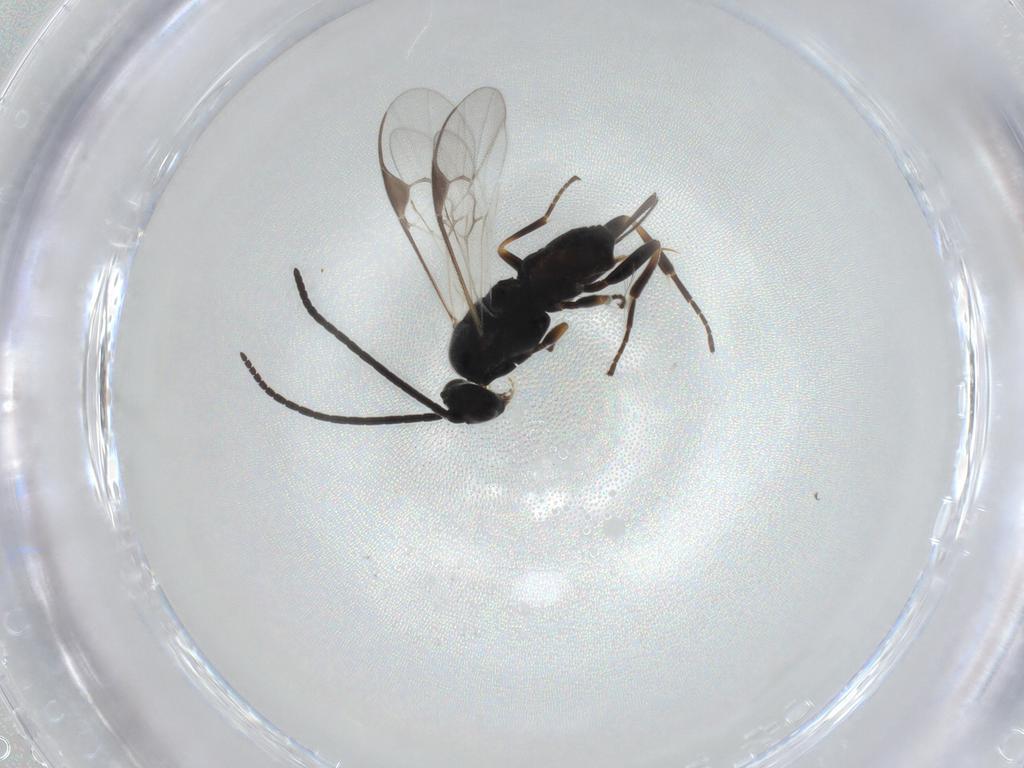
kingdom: Animalia
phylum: Arthropoda
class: Insecta
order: Hymenoptera
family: Braconidae
